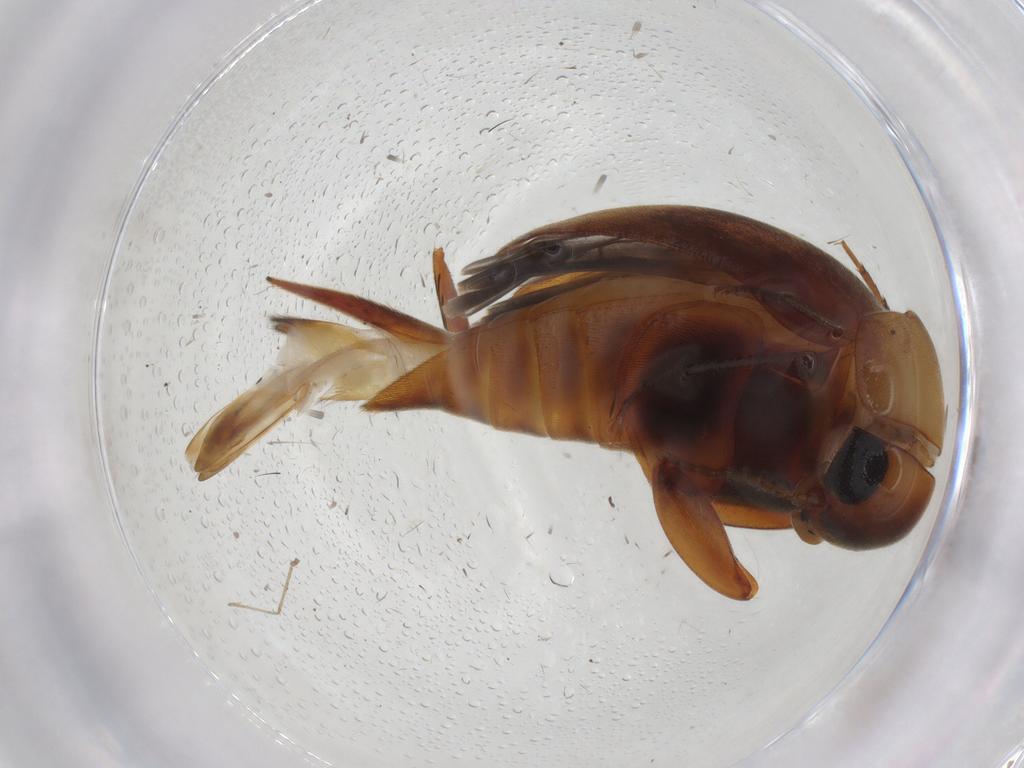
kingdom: Animalia
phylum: Arthropoda
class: Insecta
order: Coleoptera
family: Mordellidae
